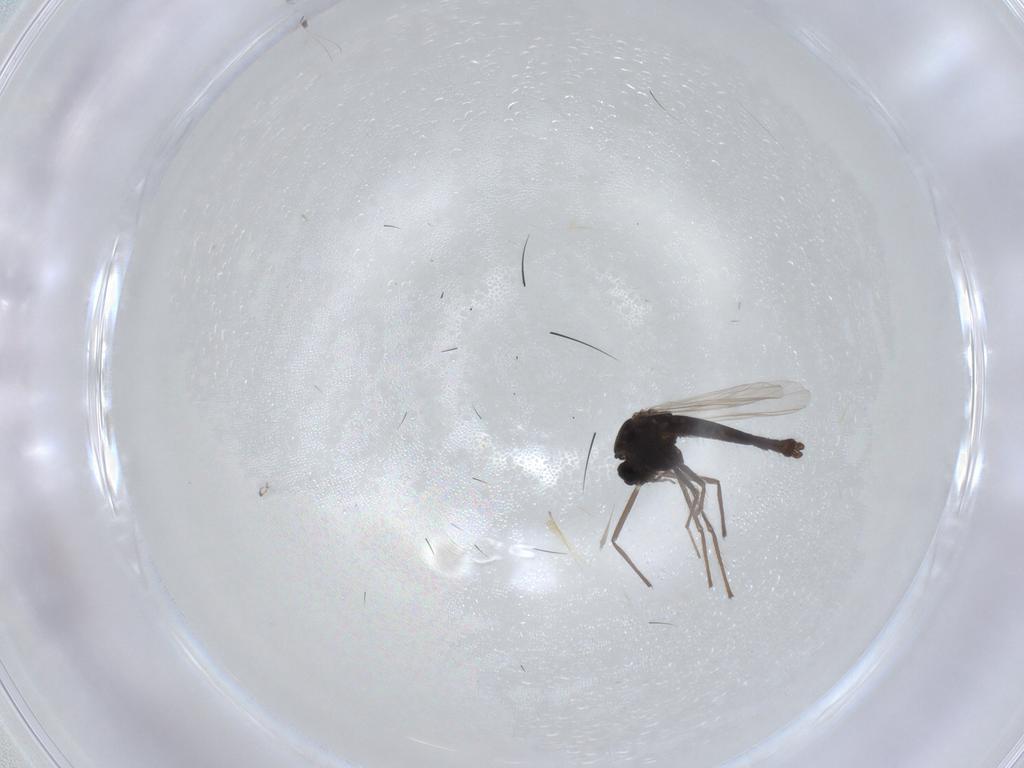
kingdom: Animalia
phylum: Arthropoda
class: Insecta
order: Diptera
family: Chironomidae
